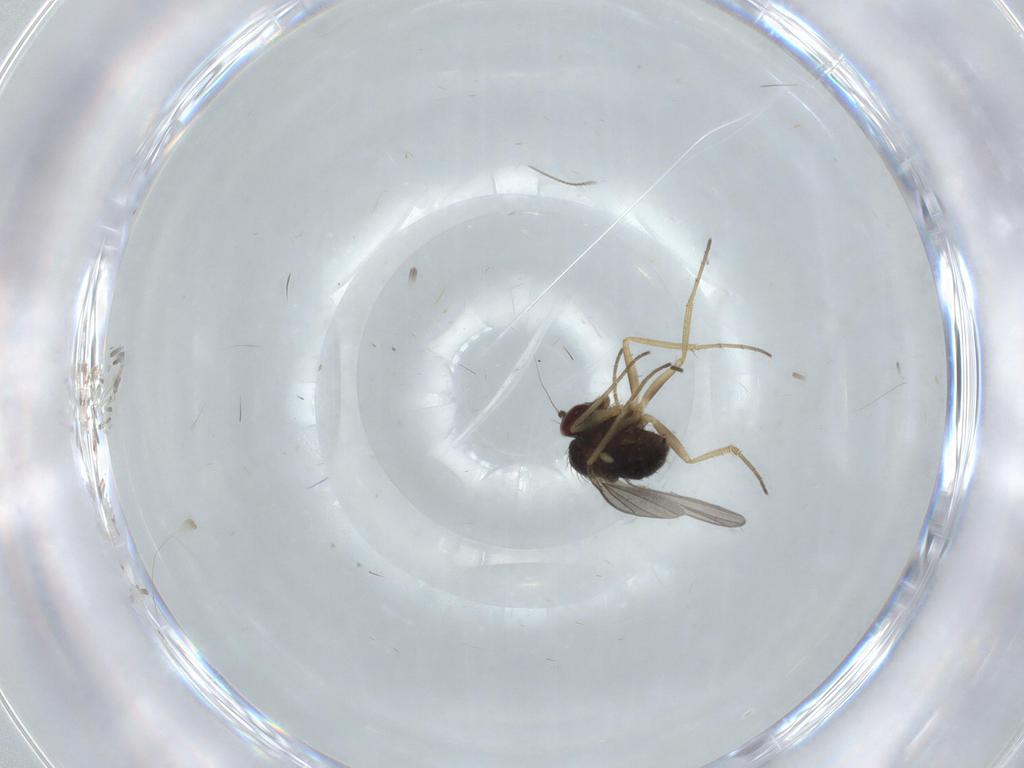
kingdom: Animalia
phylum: Arthropoda
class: Insecta
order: Diptera
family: Dolichopodidae
